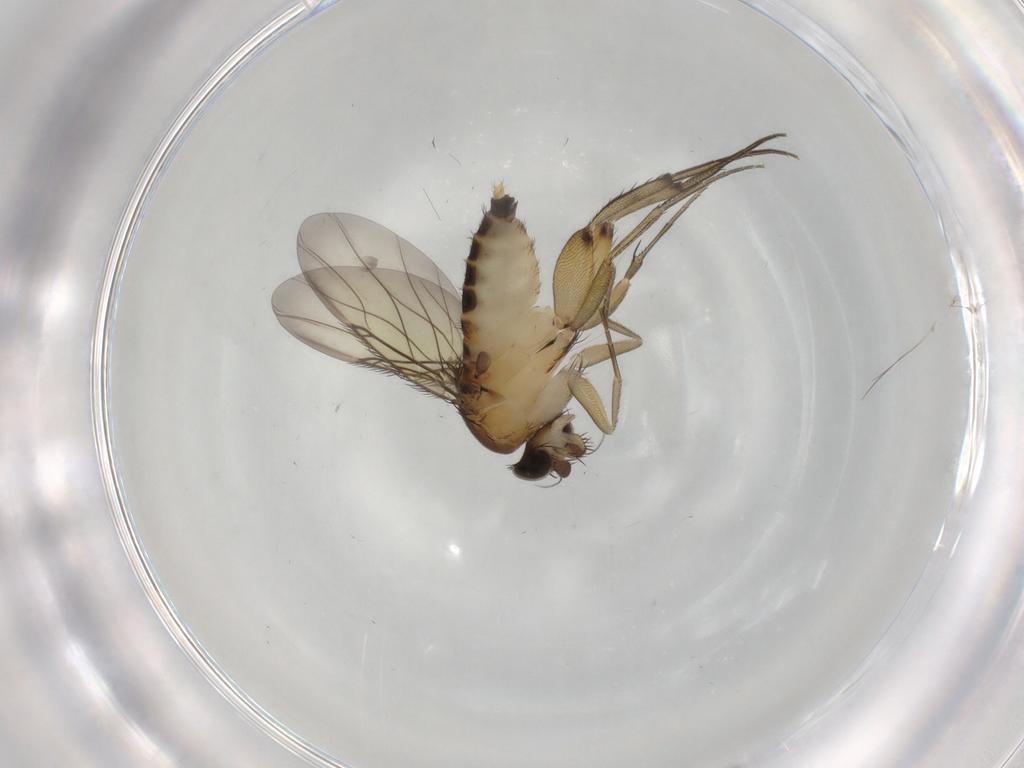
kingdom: Animalia
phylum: Arthropoda
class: Insecta
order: Diptera
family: Phoridae
